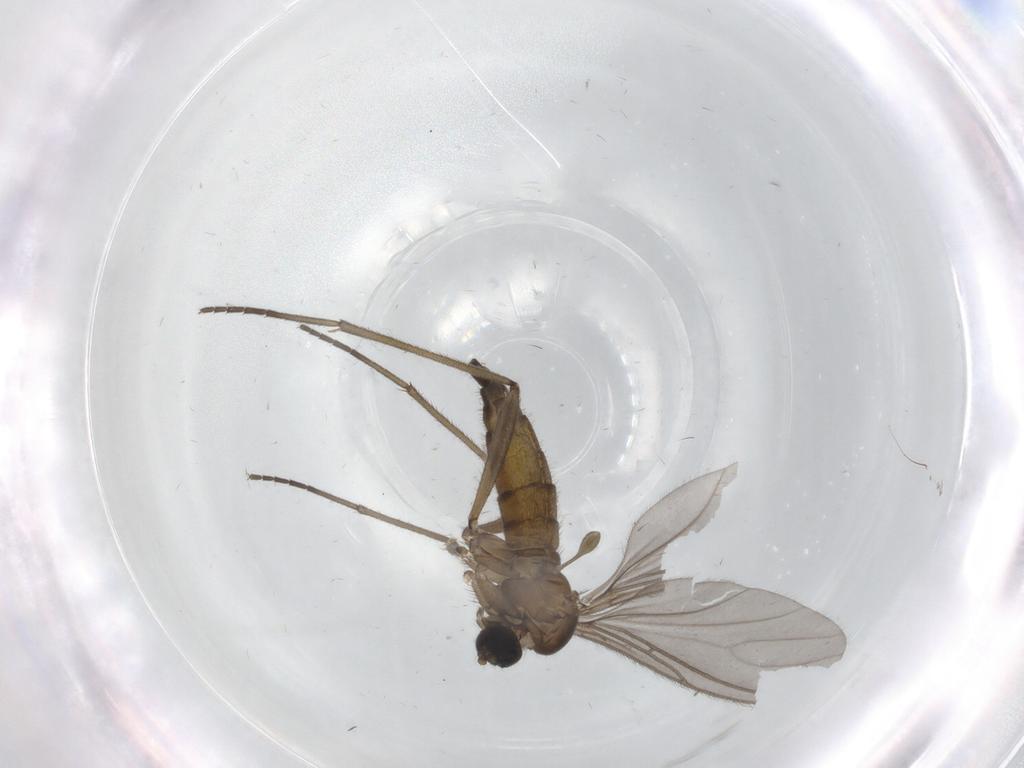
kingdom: Animalia
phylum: Arthropoda
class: Insecta
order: Diptera
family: Sciaridae
